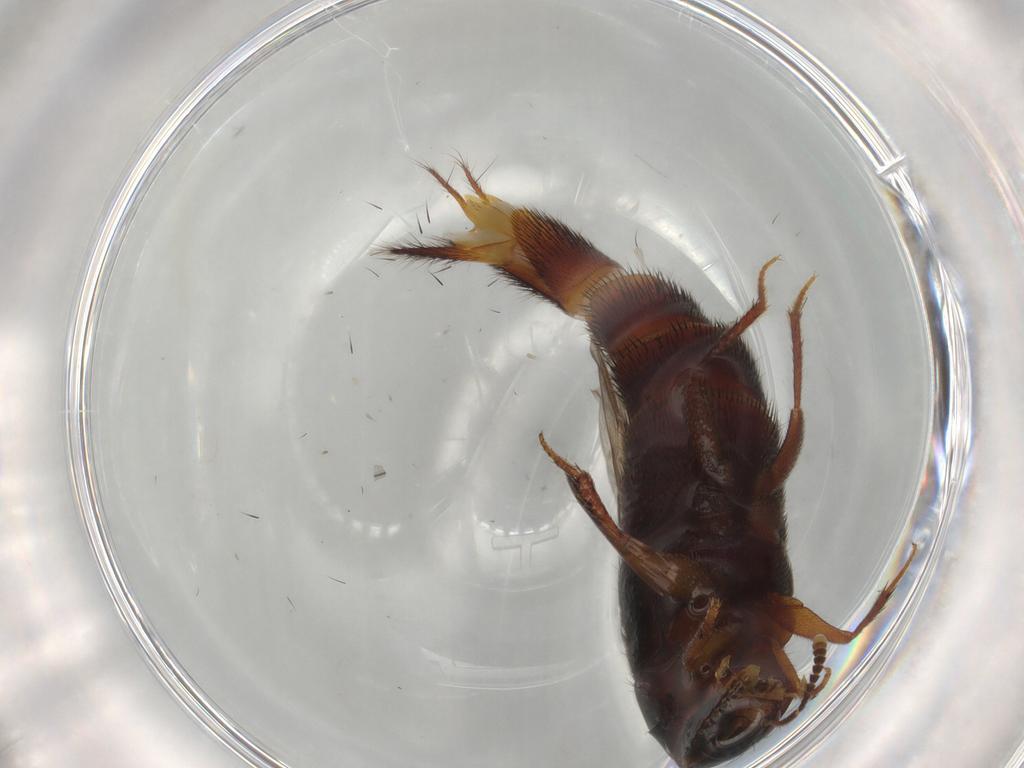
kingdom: Animalia
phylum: Arthropoda
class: Insecta
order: Coleoptera
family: Staphylinidae
